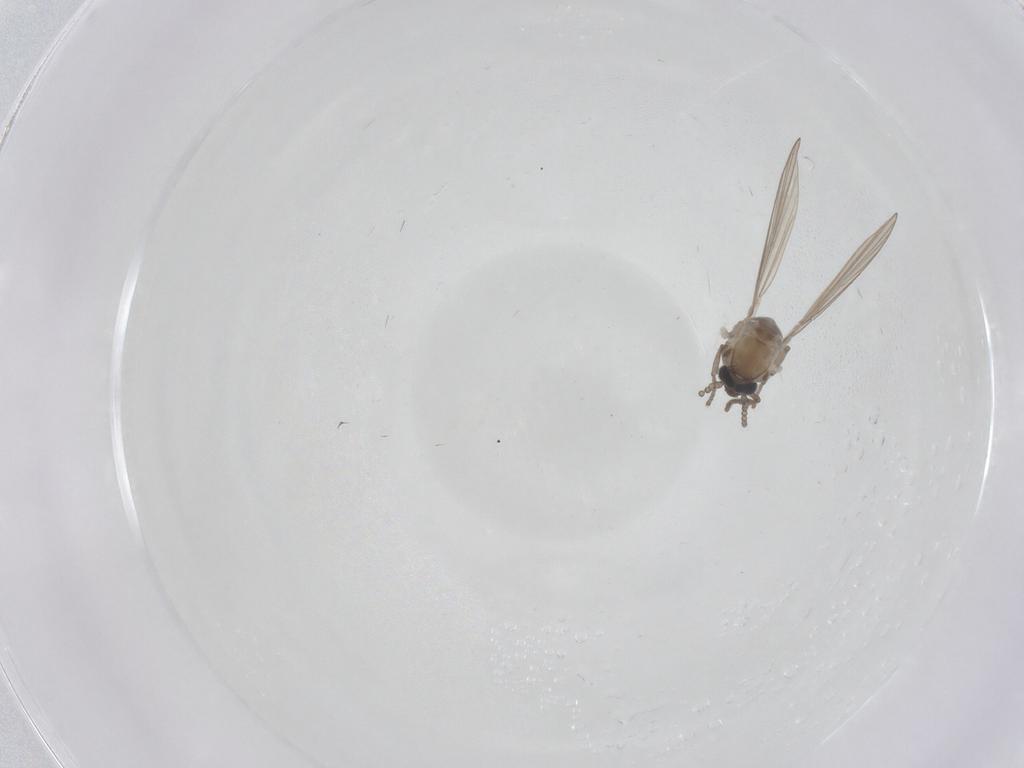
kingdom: Animalia
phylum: Arthropoda
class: Insecta
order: Diptera
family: Psychodidae
